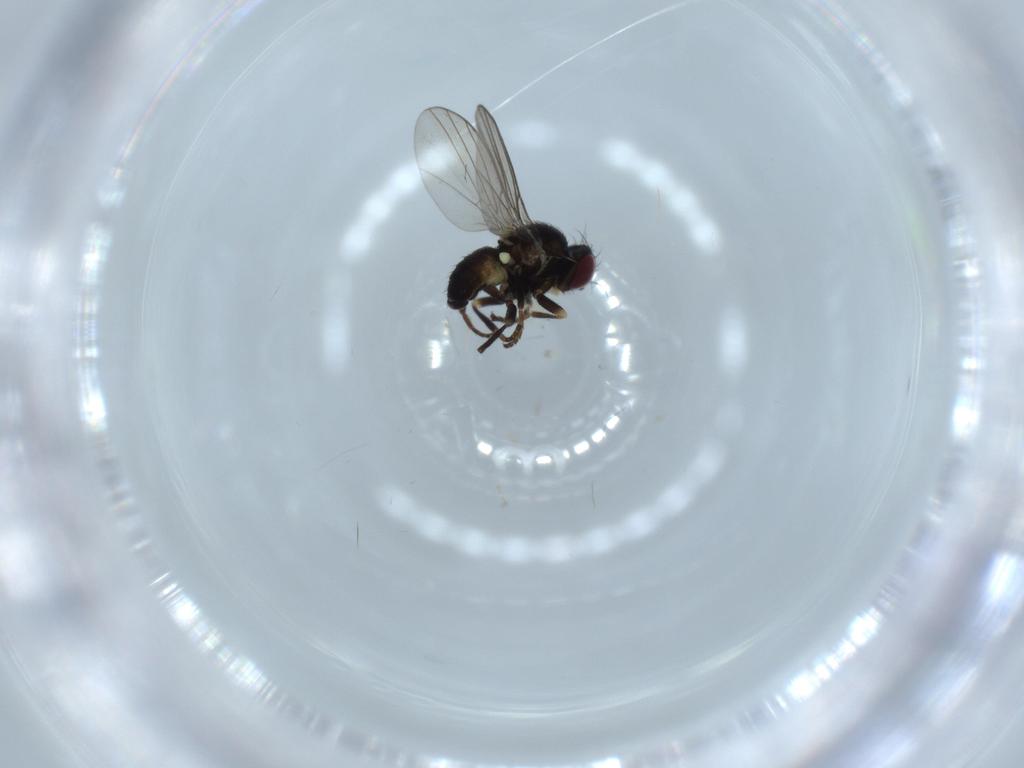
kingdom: Animalia
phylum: Arthropoda
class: Insecta
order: Diptera
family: Agromyzidae
